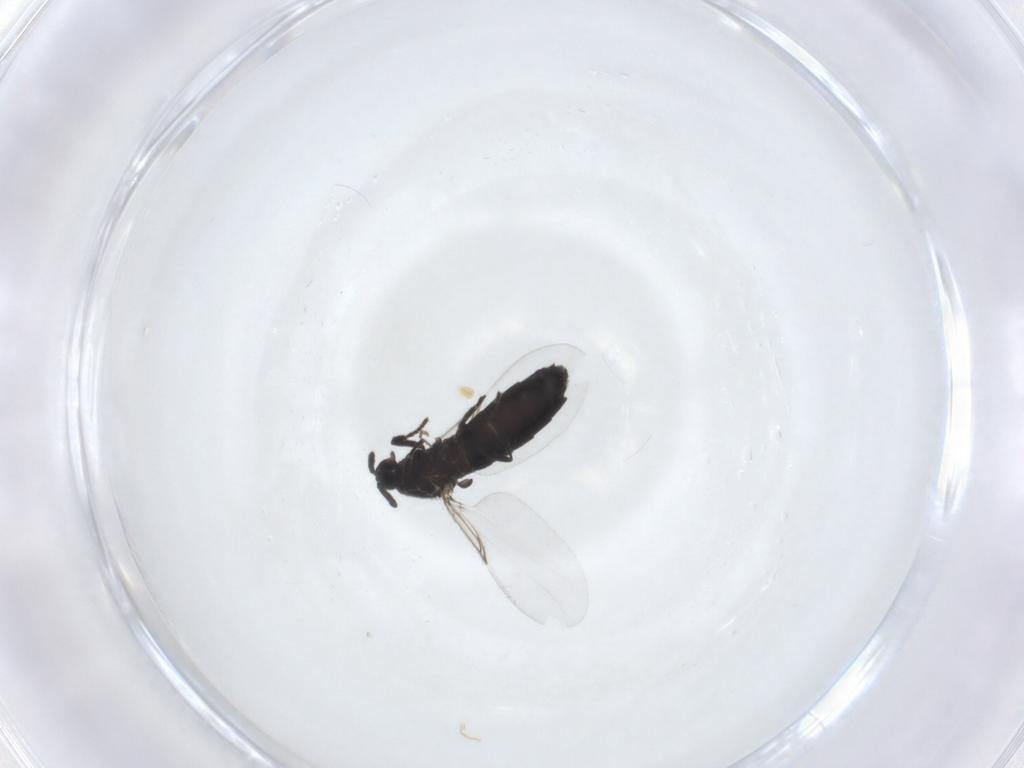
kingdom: Animalia
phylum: Arthropoda
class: Insecta
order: Diptera
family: Scatopsidae
